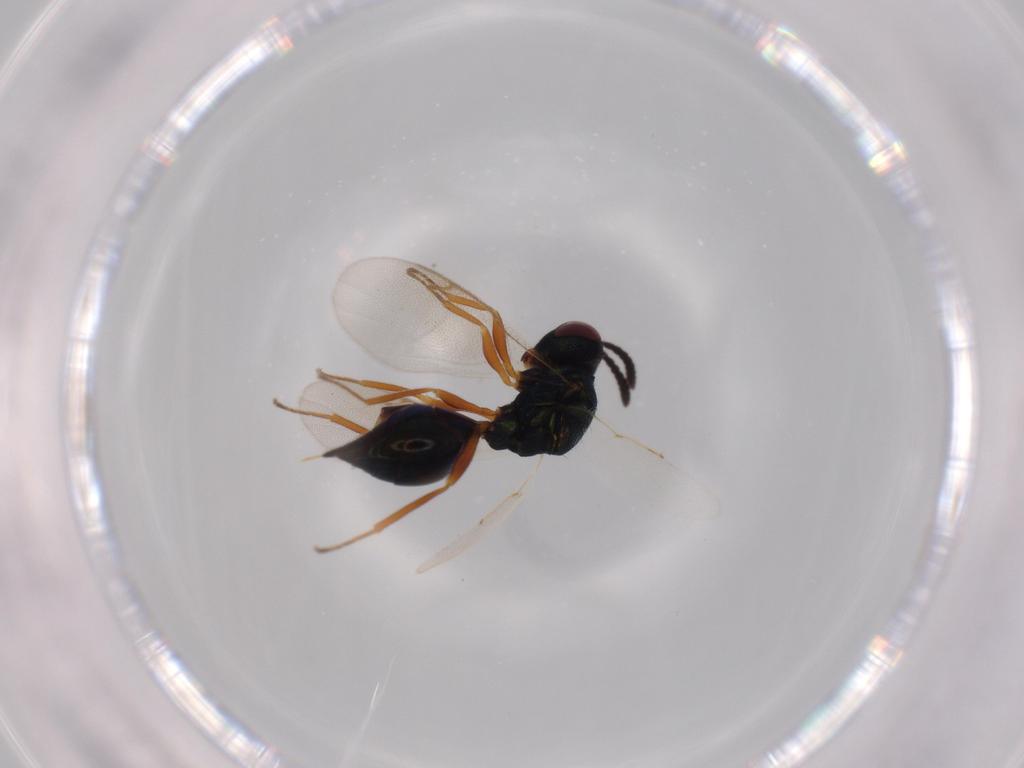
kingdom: Animalia
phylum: Arthropoda
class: Insecta
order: Hymenoptera
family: Pteromalidae
